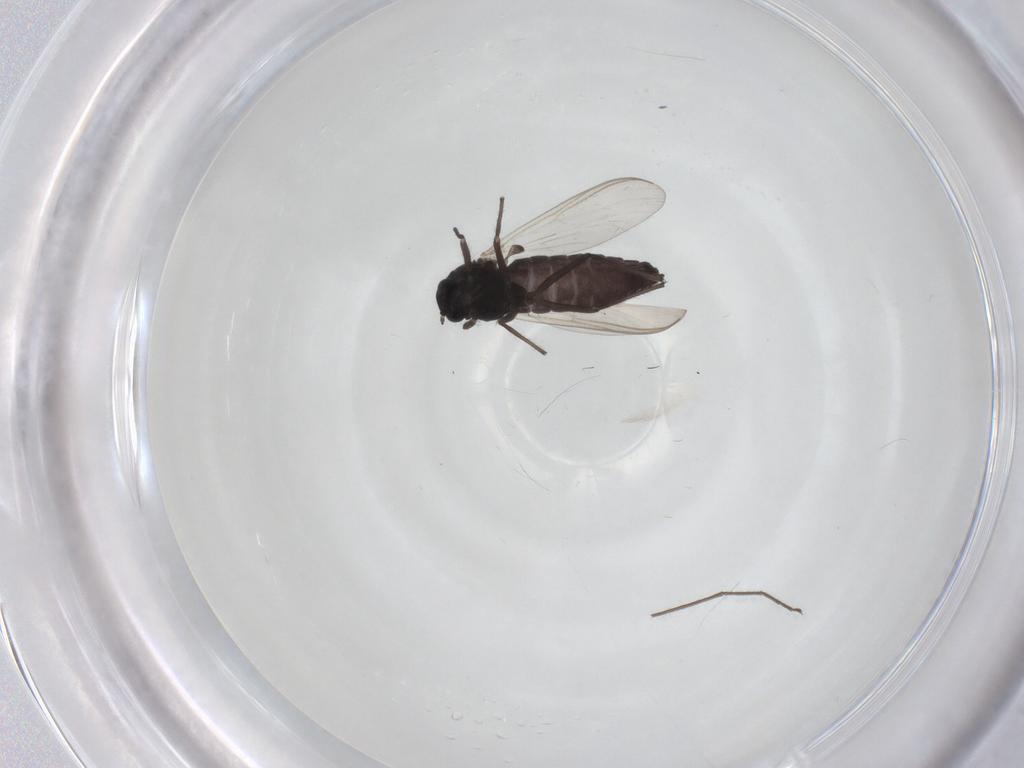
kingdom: Animalia
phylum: Arthropoda
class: Insecta
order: Diptera
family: Chironomidae
